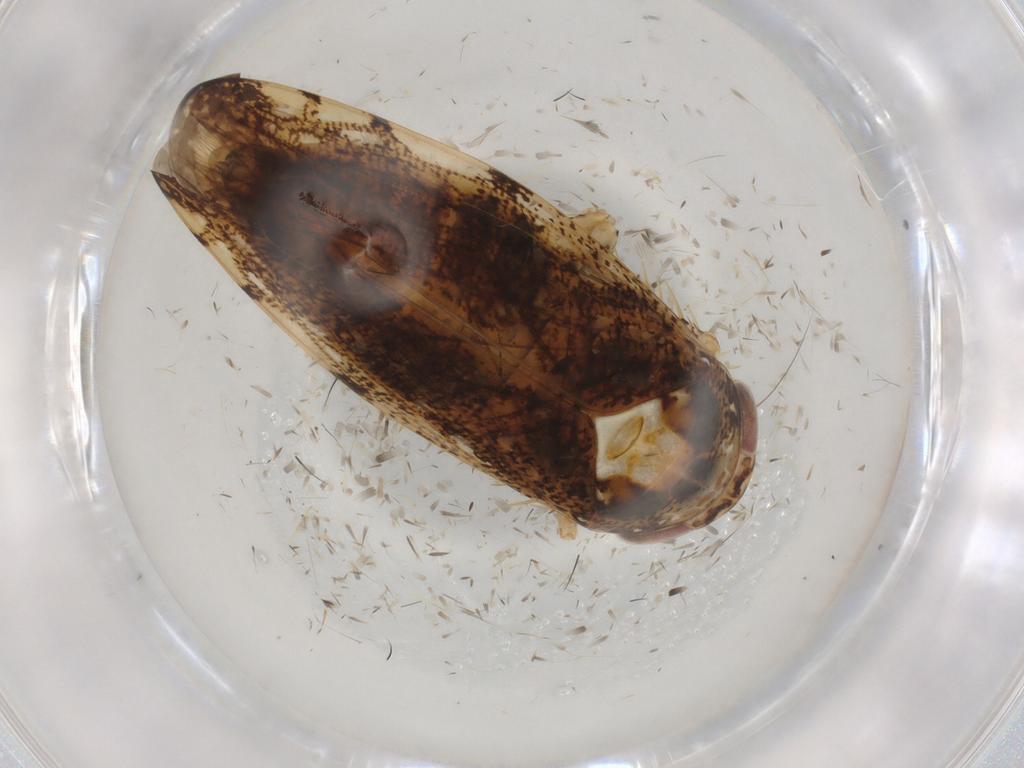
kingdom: Animalia
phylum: Arthropoda
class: Insecta
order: Hemiptera
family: Cicadellidae
